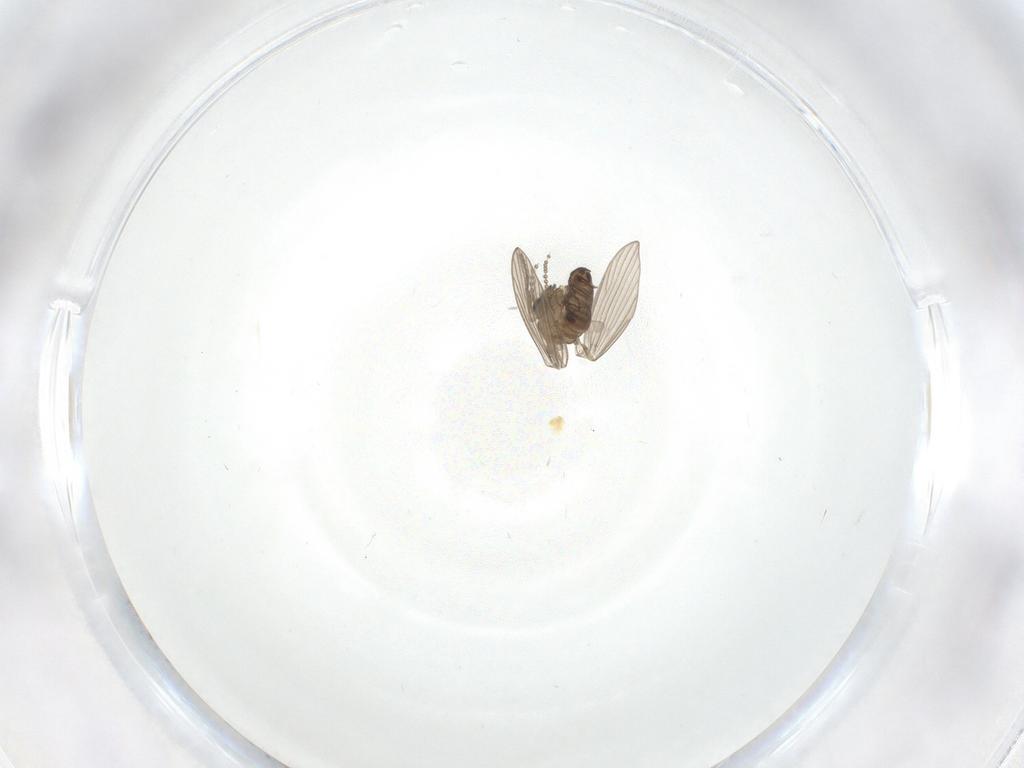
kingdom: Animalia
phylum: Arthropoda
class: Insecta
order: Diptera
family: Psychodidae
